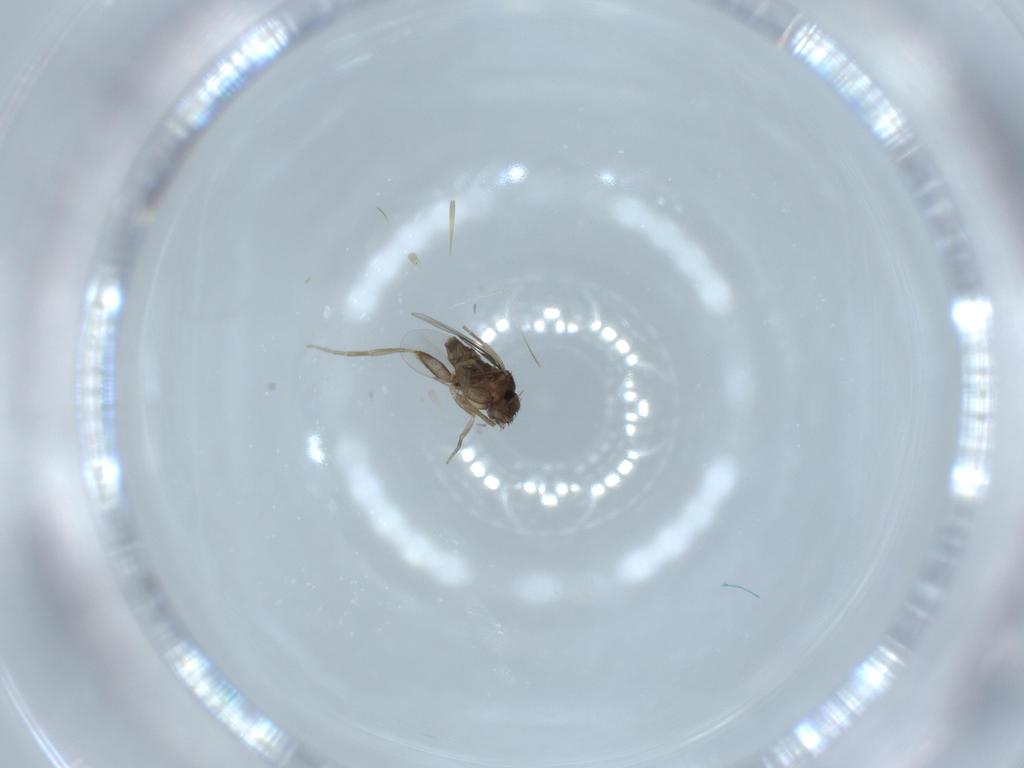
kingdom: Animalia
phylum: Arthropoda
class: Insecta
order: Diptera
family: Phoridae
